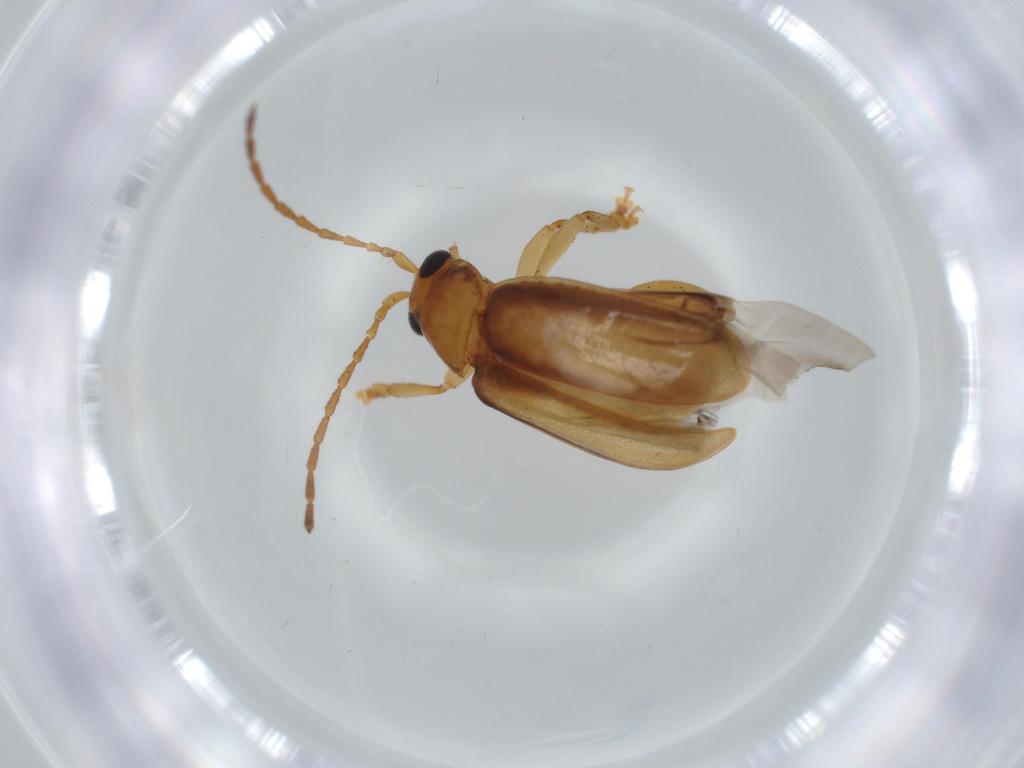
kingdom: Animalia
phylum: Arthropoda
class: Insecta
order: Coleoptera
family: Chrysomelidae
